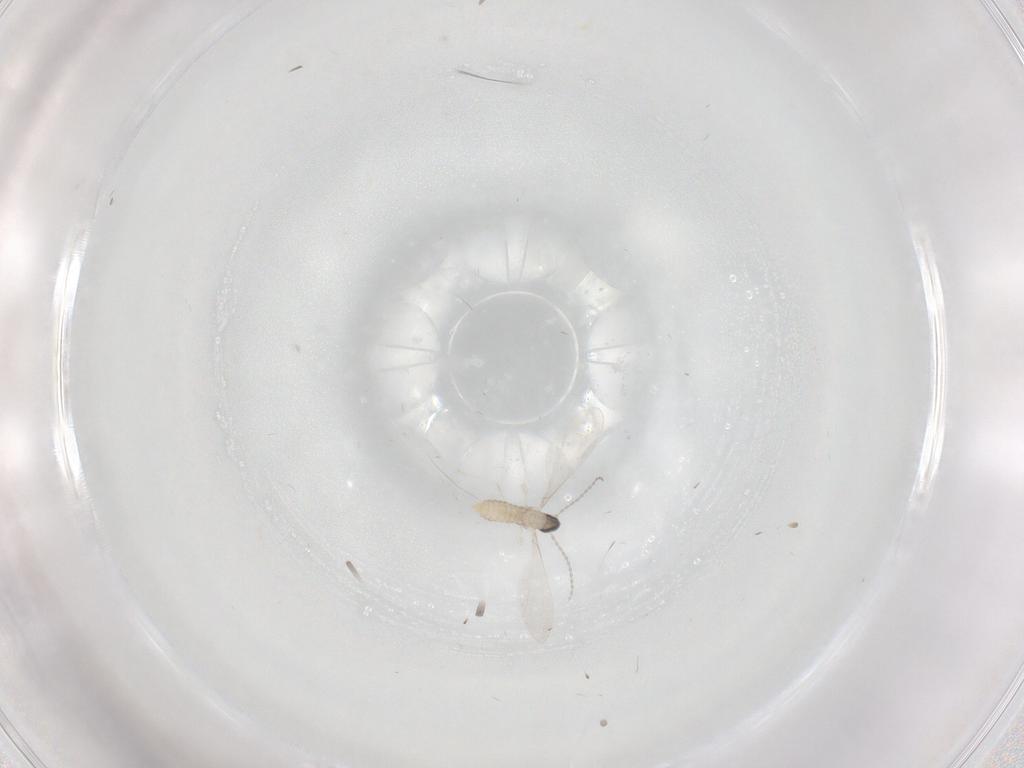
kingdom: Animalia
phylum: Arthropoda
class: Insecta
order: Diptera
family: Cecidomyiidae
